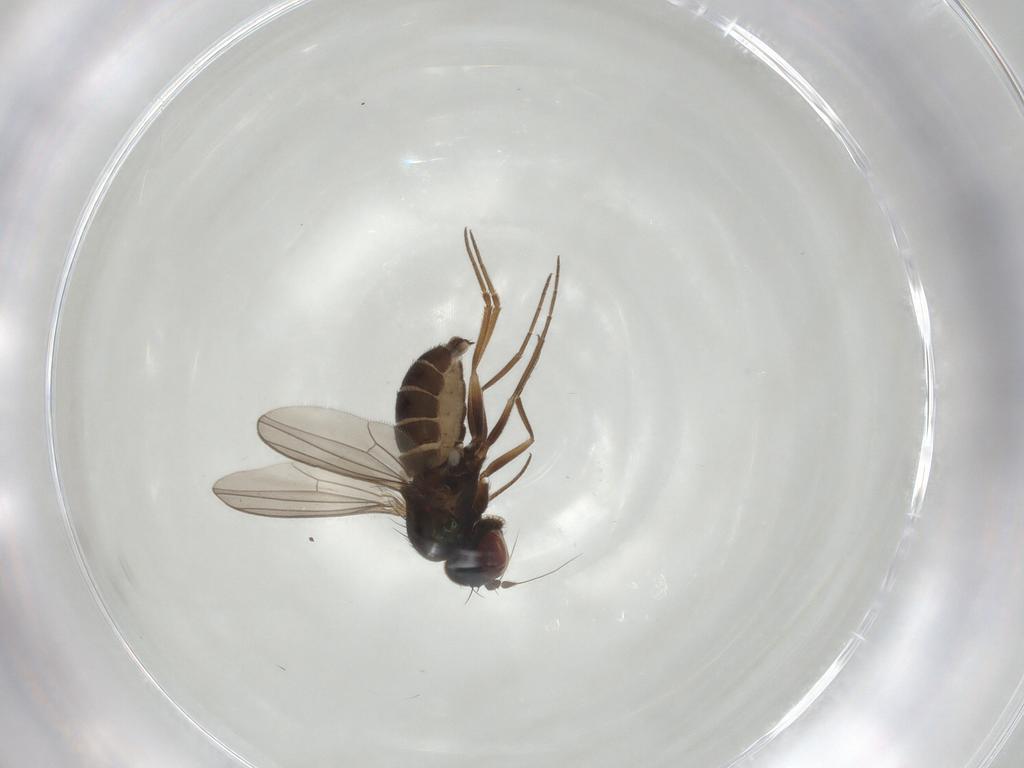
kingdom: Animalia
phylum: Arthropoda
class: Insecta
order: Diptera
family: Dolichopodidae
